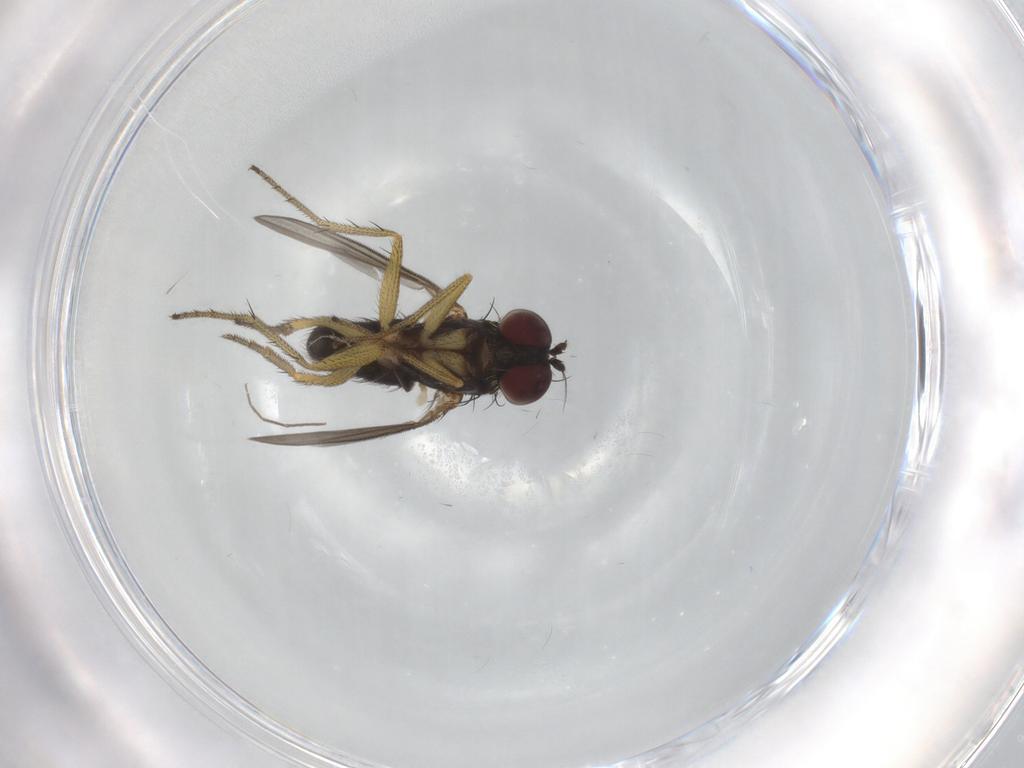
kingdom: Animalia
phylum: Arthropoda
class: Insecta
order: Diptera
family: Dolichopodidae
